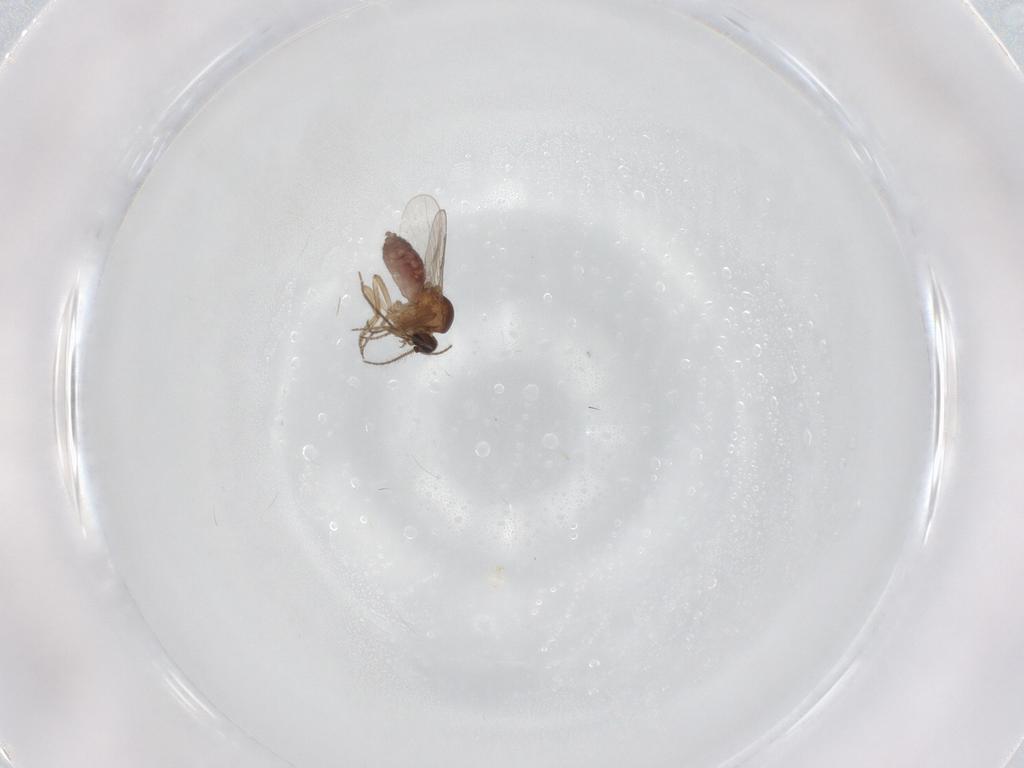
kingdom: Animalia
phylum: Arthropoda
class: Insecta
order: Diptera
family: Chironomidae
